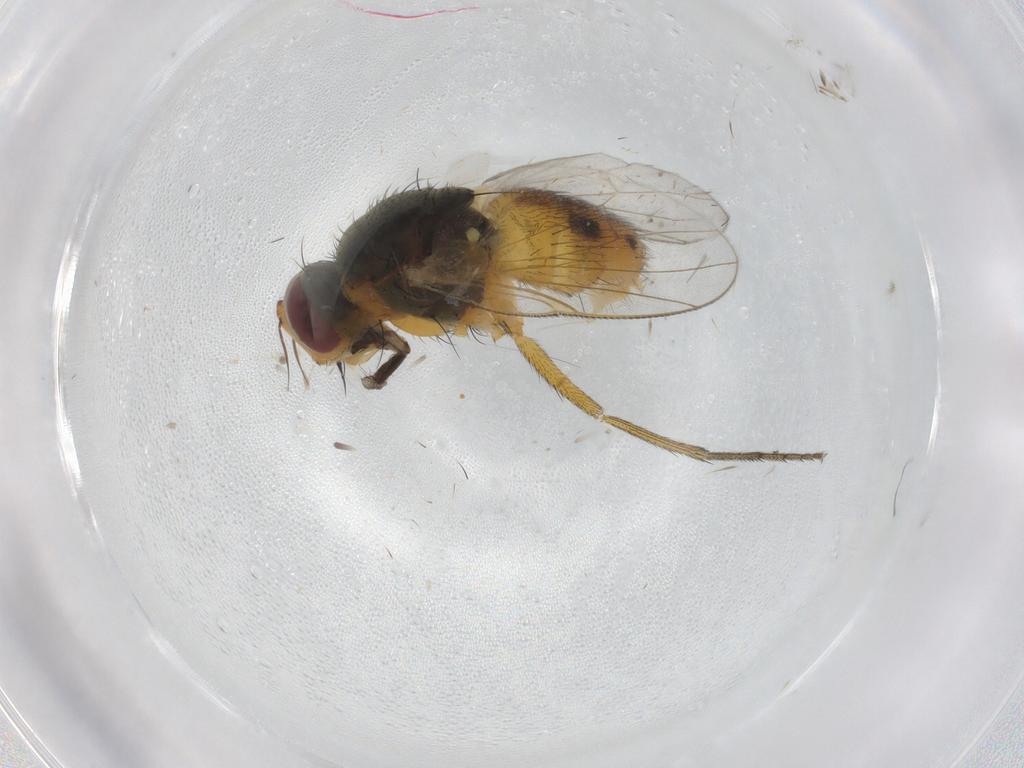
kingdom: Animalia
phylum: Arthropoda
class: Insecta
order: Diptera
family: Muscidae
